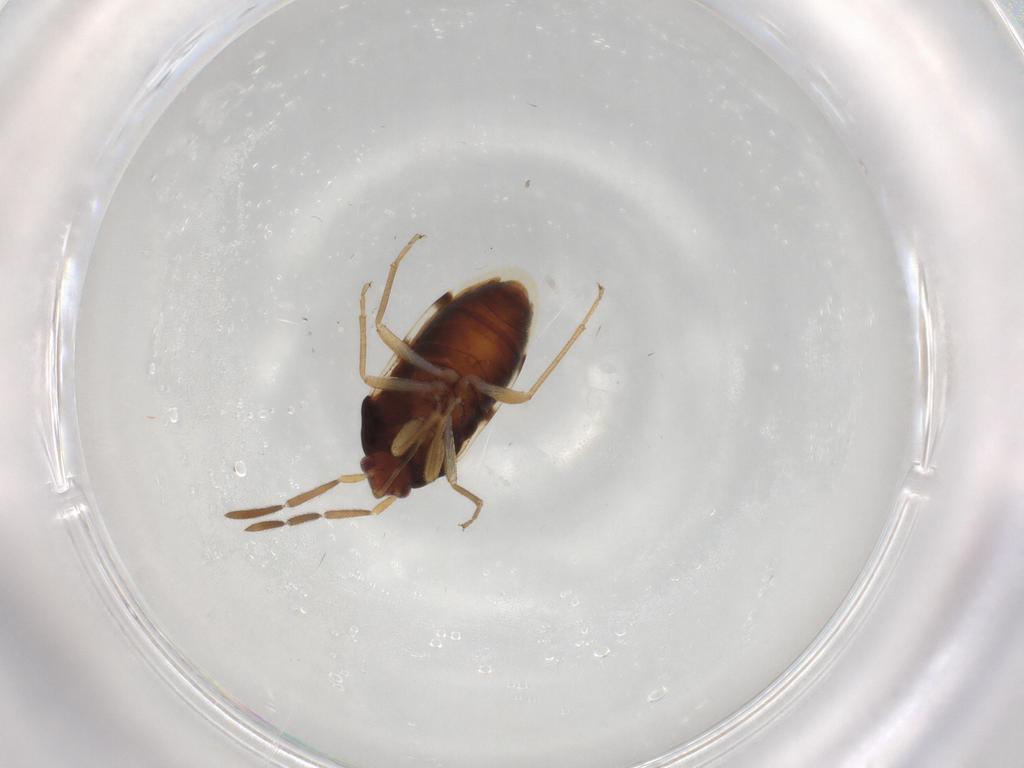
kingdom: Animalia
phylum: Arthropoda
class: Insecta
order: Hemiptera
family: Rhyparochromidae
